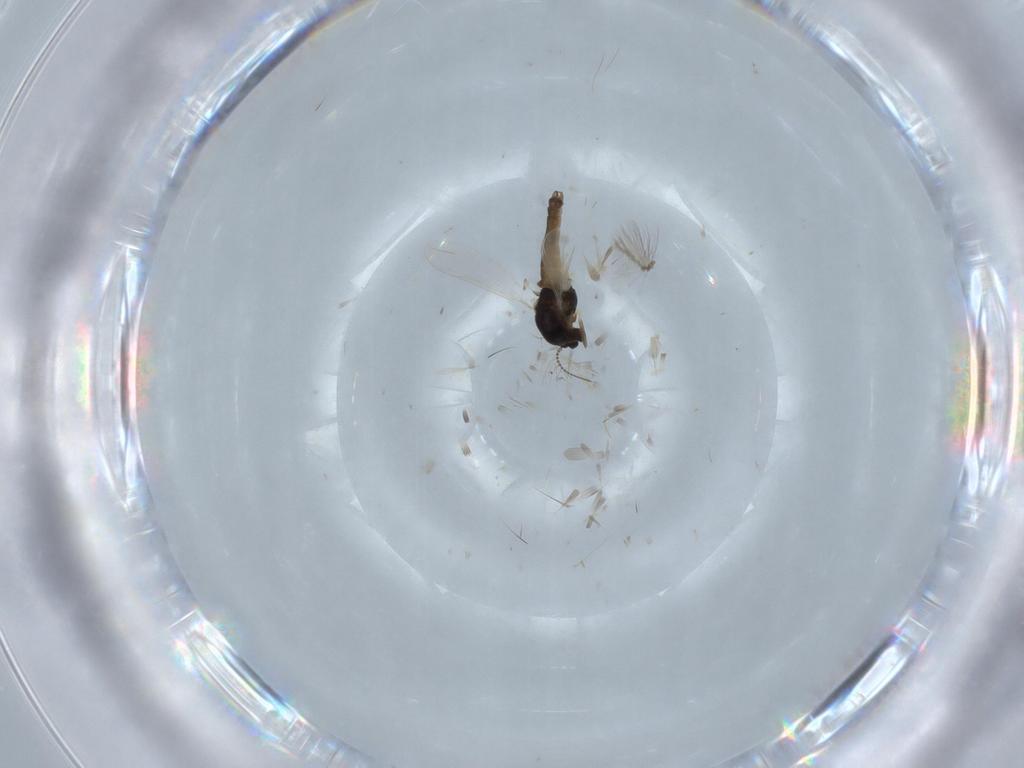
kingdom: Animalia
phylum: Arthropoda
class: Insecta
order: Diptera
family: Chironomidae
